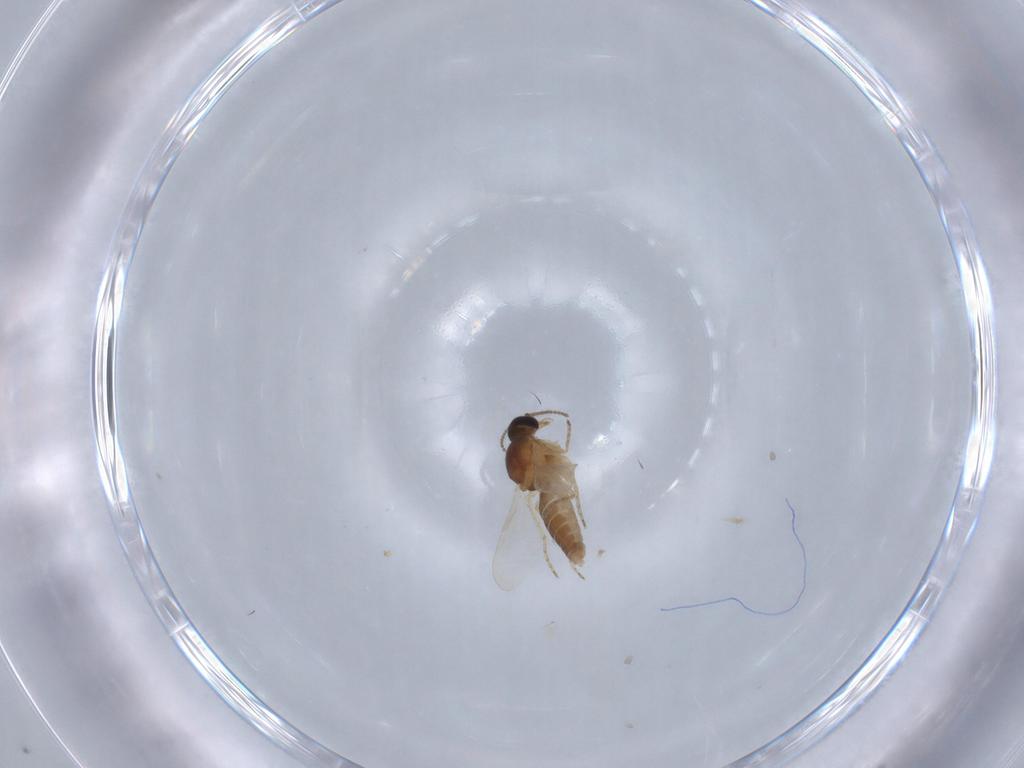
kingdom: Animalia
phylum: Arthropoda
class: Insecta
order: Diptera
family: Ceratopogonidae
